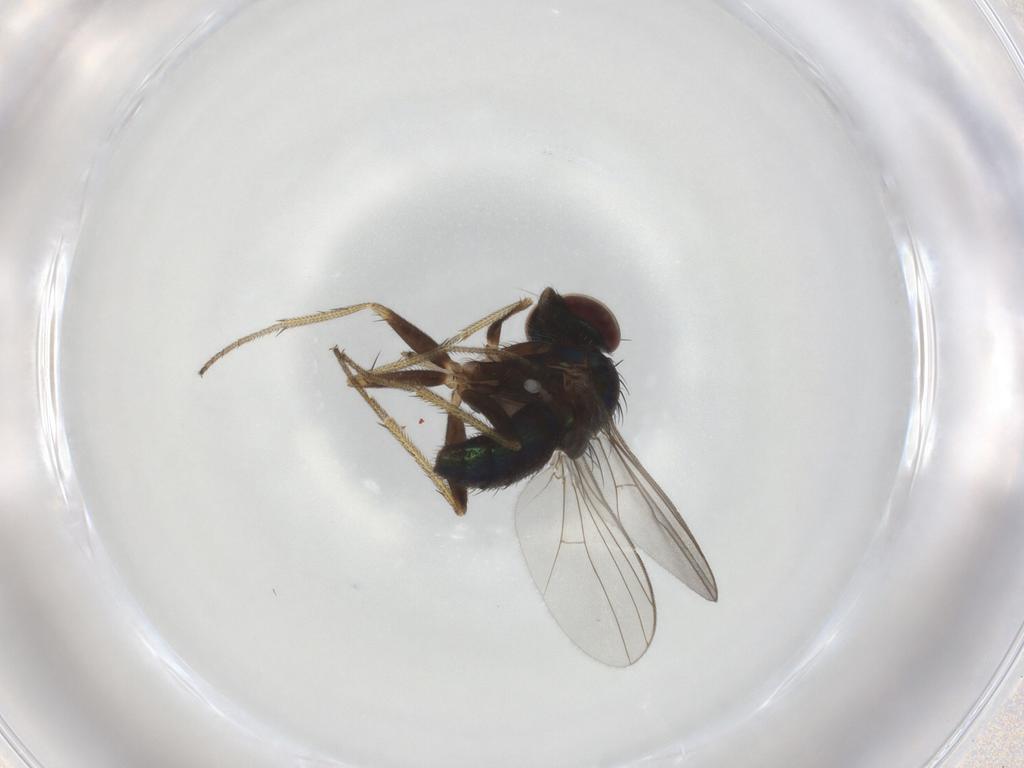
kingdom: Animalia
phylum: Arthropoda
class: Insecta
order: Diptera
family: Dolichopodidae
